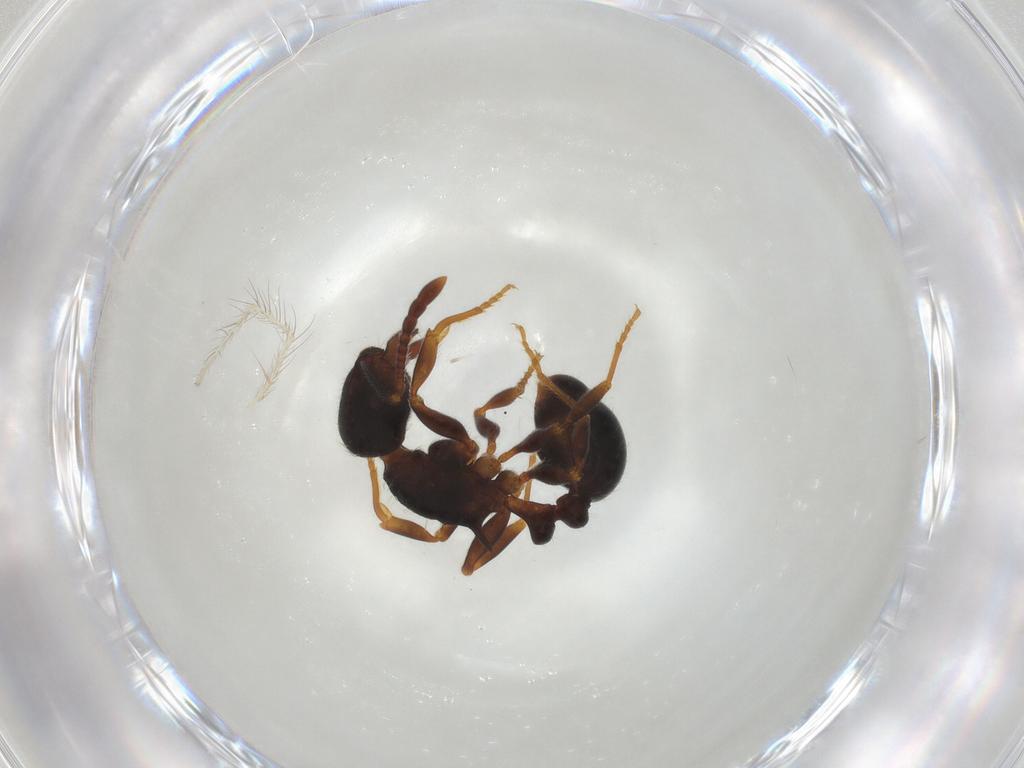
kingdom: Animalia
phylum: Arthropoda
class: Insecta
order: Hymenoptera
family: Formicidae
